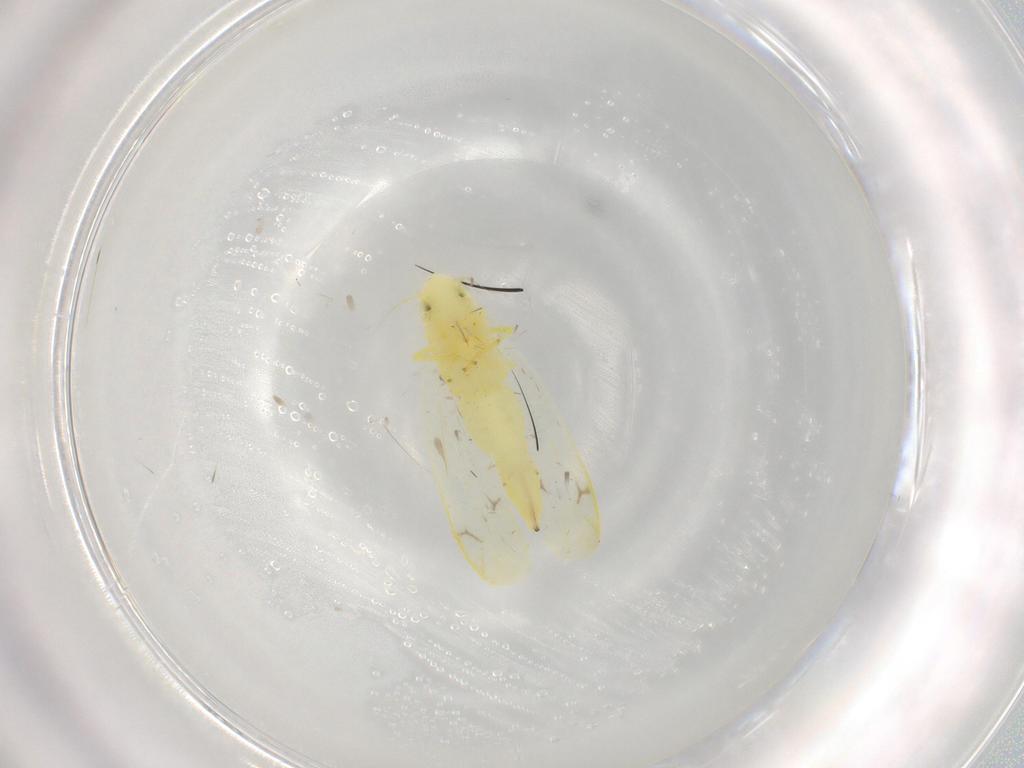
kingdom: Animalia
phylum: Arthropoda
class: Insecta
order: Hemiptera
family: Cicadellidae
